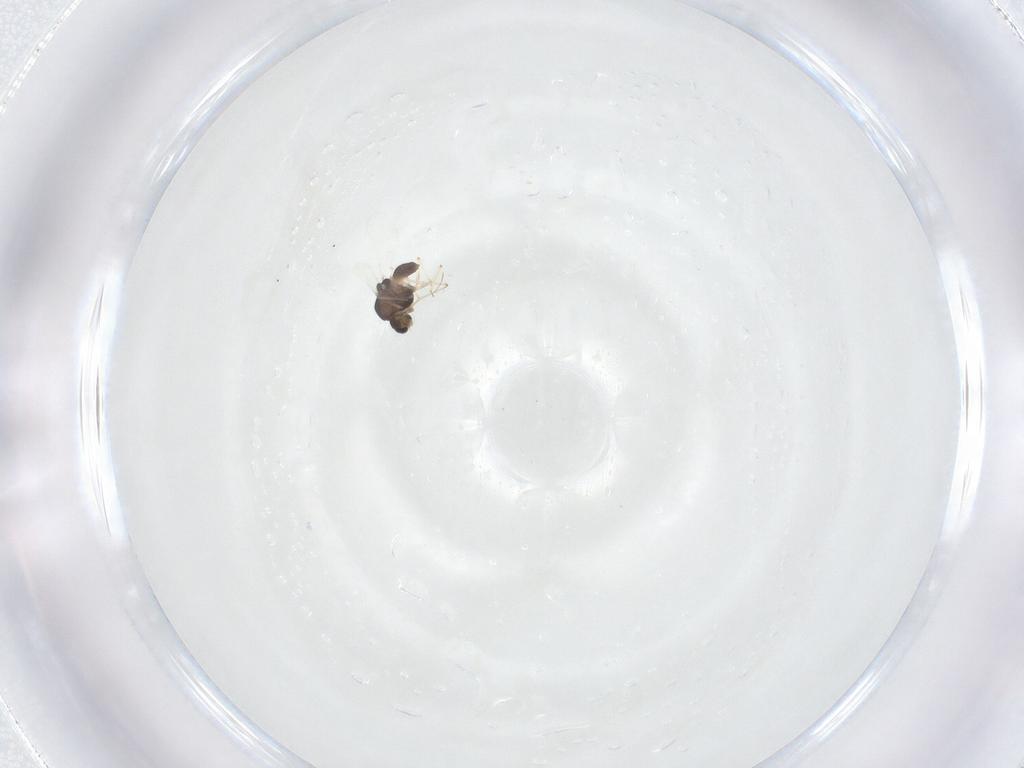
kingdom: Animalia
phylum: Arthropoda
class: Insecta
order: Diptera
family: Chironomidae
